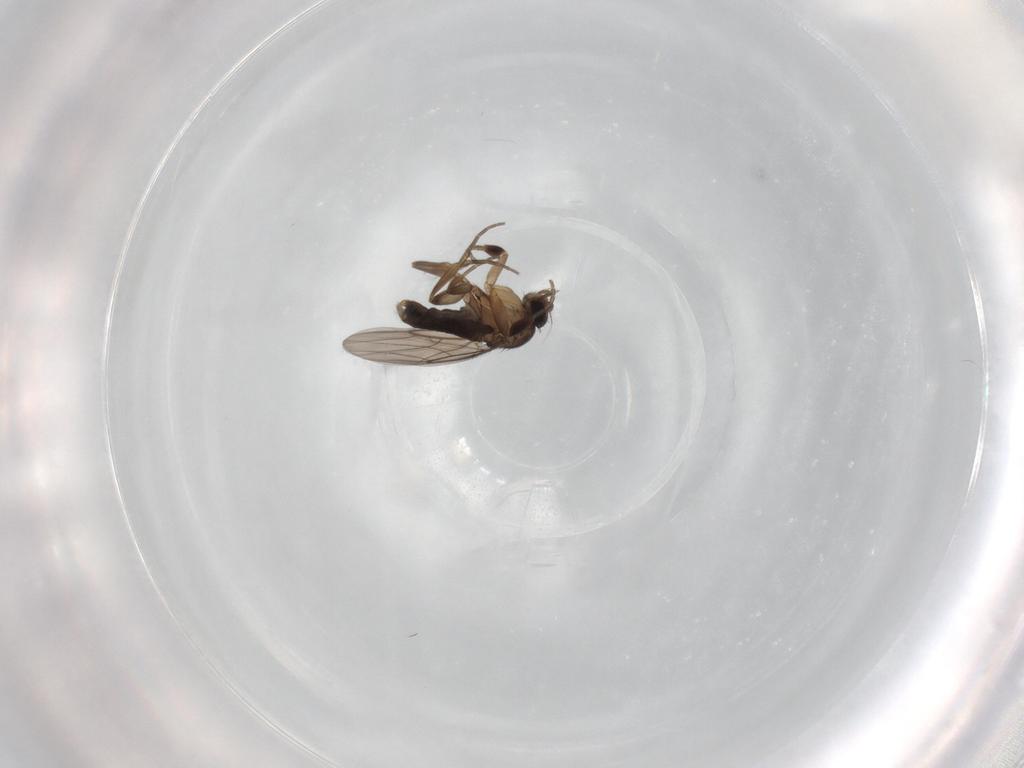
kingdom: Animalia
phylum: Arthropoda
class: Insecta
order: Diptera
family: Phoridae
